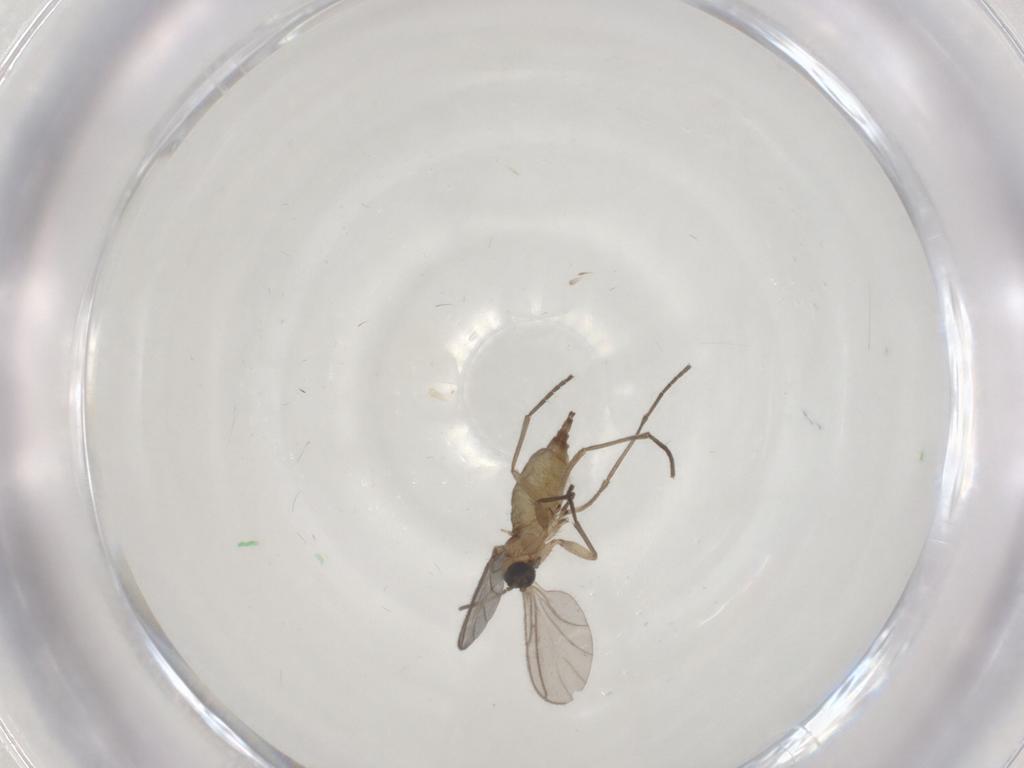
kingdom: Animalia
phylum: Arthropoda
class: Insecta
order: Diptera
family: Sciaridae
